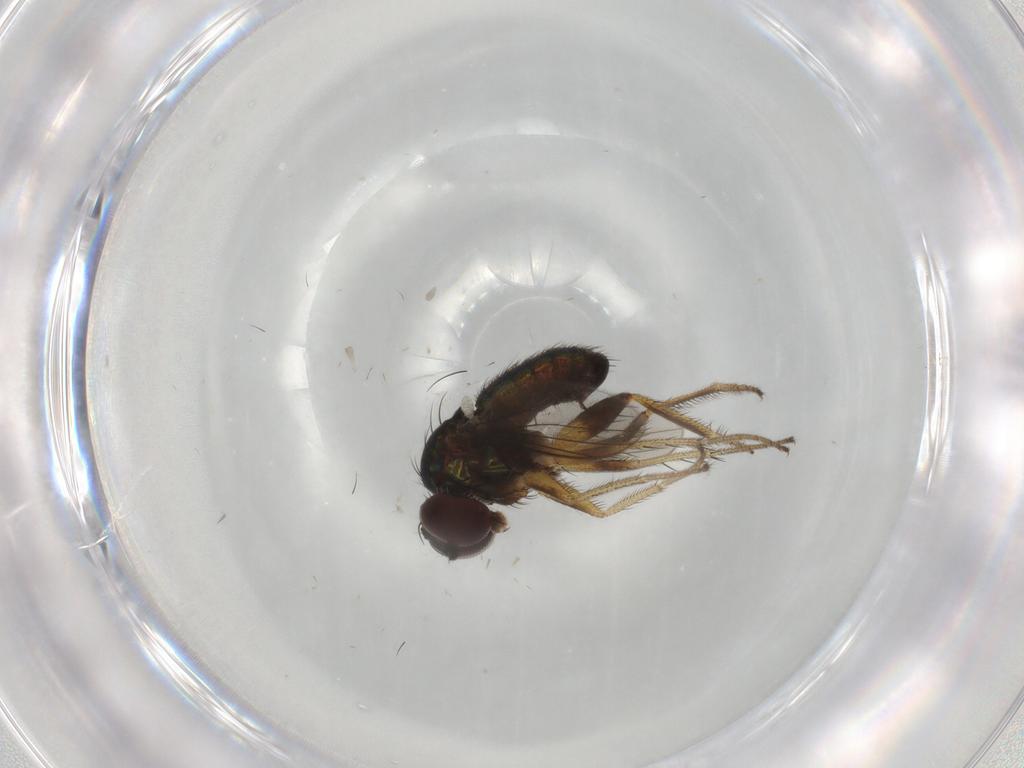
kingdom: Animalia
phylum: Arthropoda
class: Insecta
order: Diptera
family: Dolichopodidae
